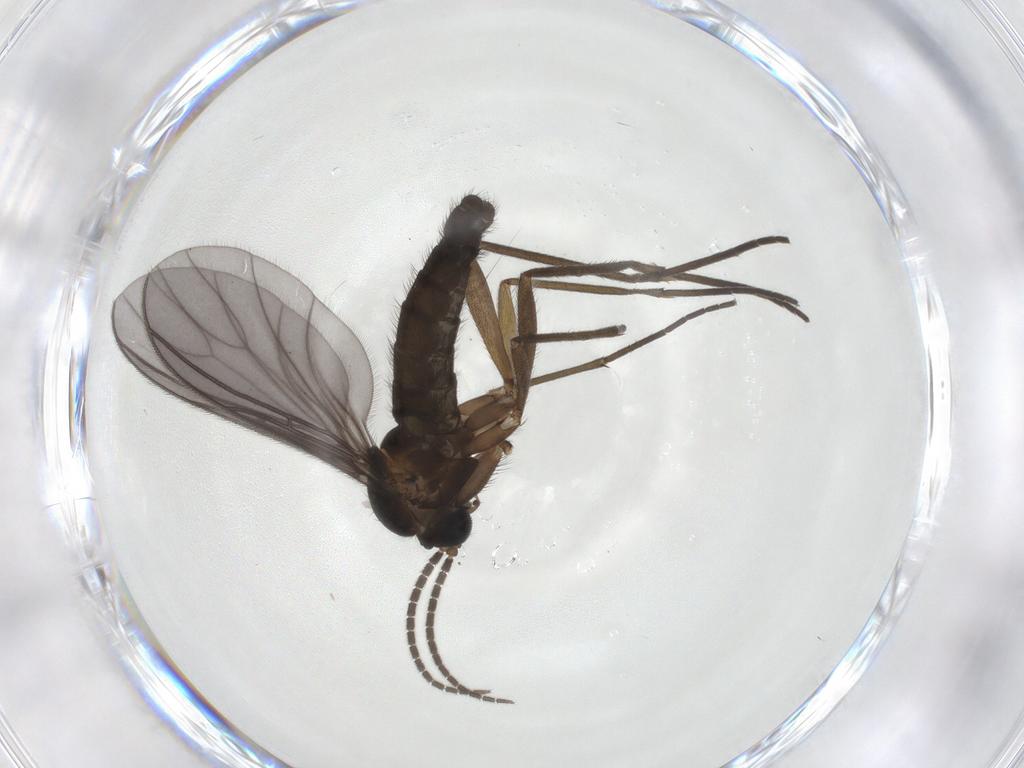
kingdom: Animalia
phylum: Arthropoda
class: Insecta
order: Diptera
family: Sciaridae
